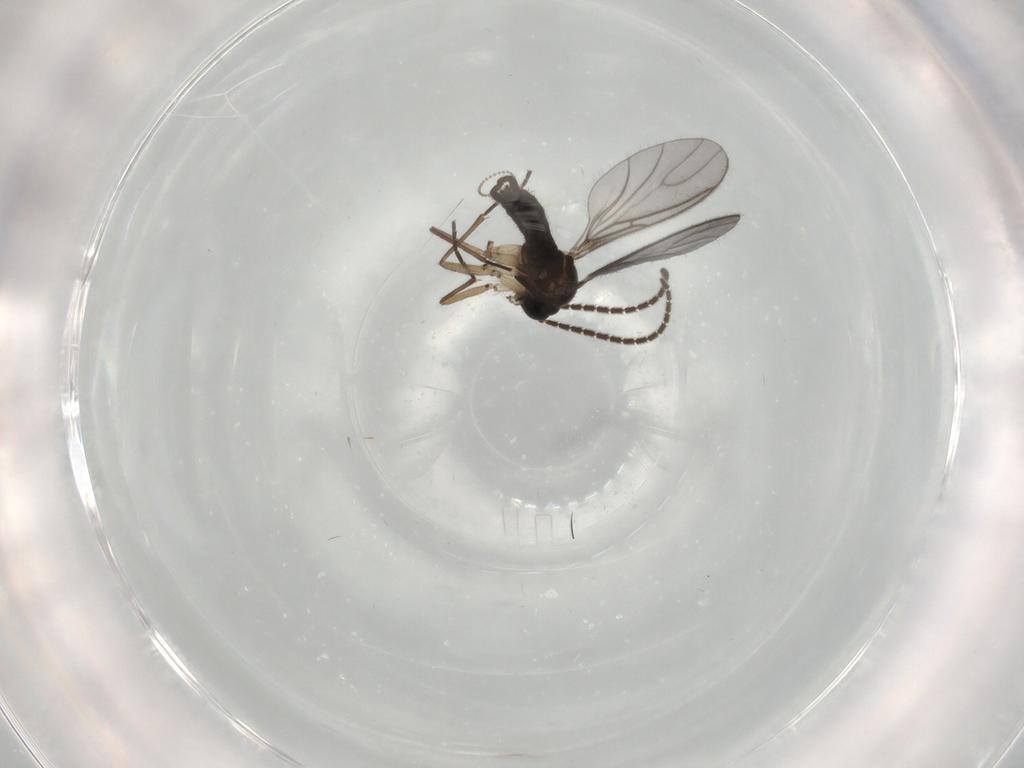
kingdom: Animalia
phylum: Arthropoda
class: Insecta
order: Diptera
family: Sciaridae
